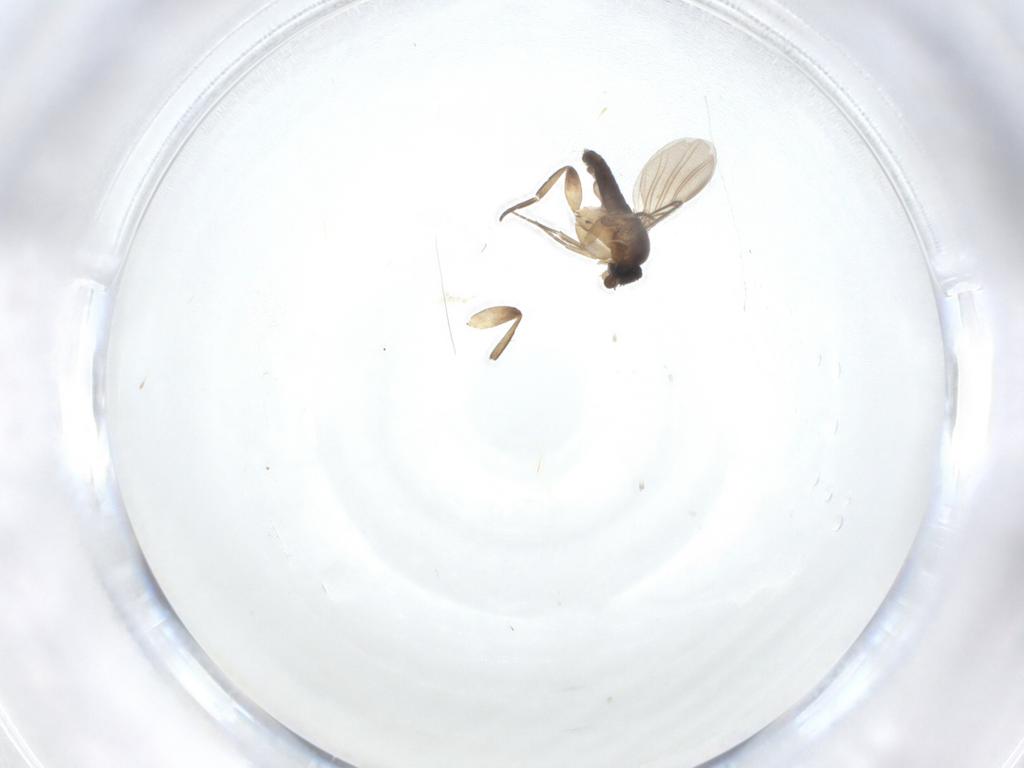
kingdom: Animalia
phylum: Arthropoda
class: Insecta
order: Diptera
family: Phoridae
